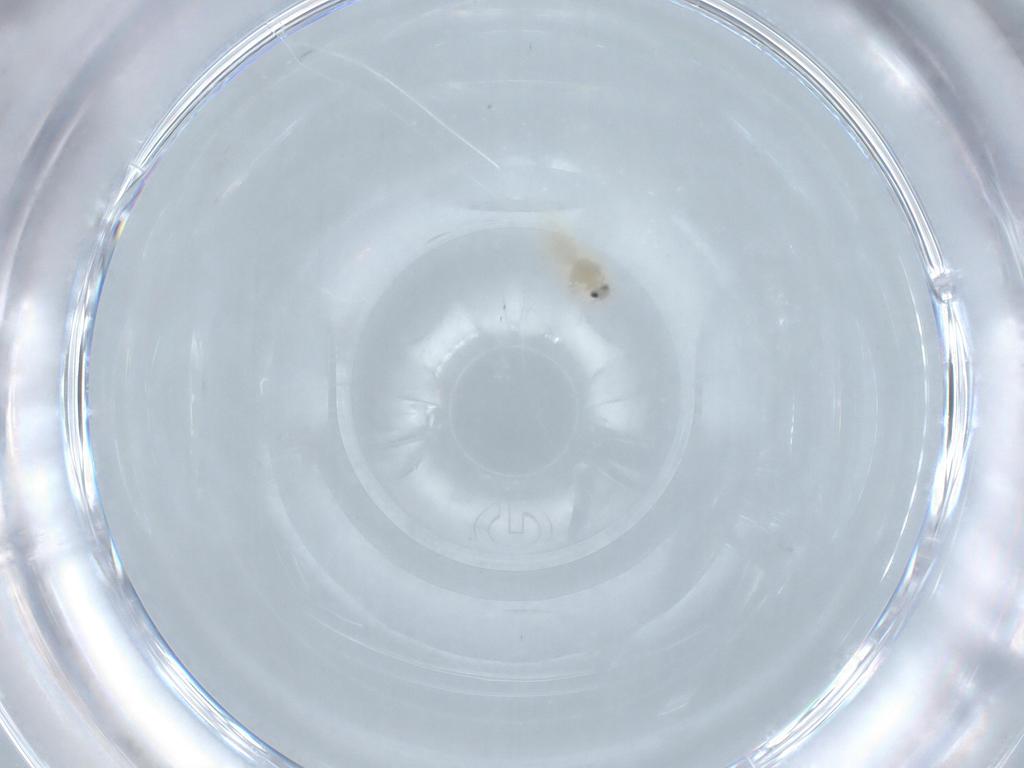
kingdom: Animalia
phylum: Arthropoda
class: Insecta
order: Hemiptera
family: Aleyrodidae
